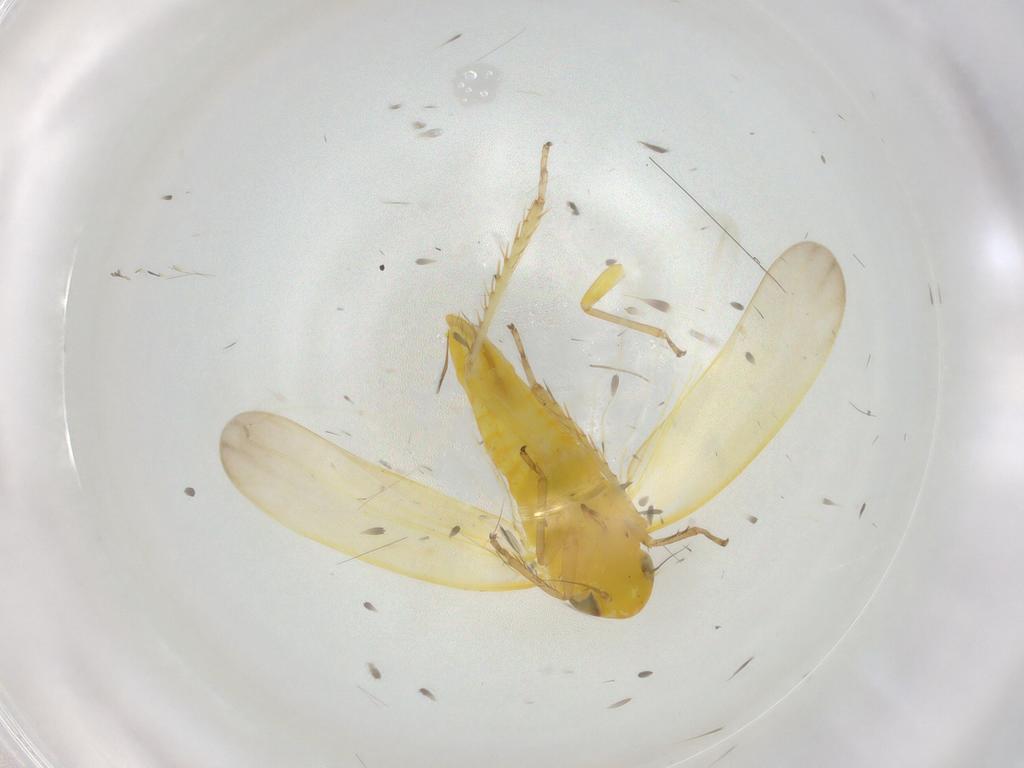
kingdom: Animalia
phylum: Arthropoda
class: Insecta
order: Hemiptera
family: Cicadellidae
